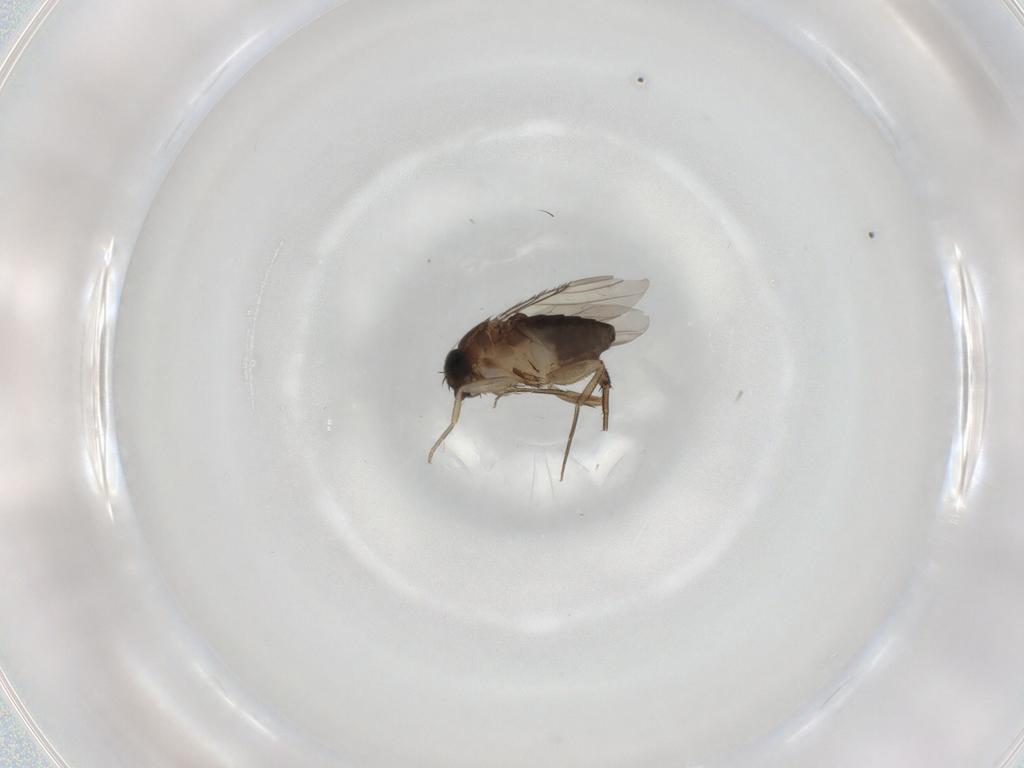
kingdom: Animalia
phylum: Arthropoda
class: Insecta
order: Diptera
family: Phoridae
